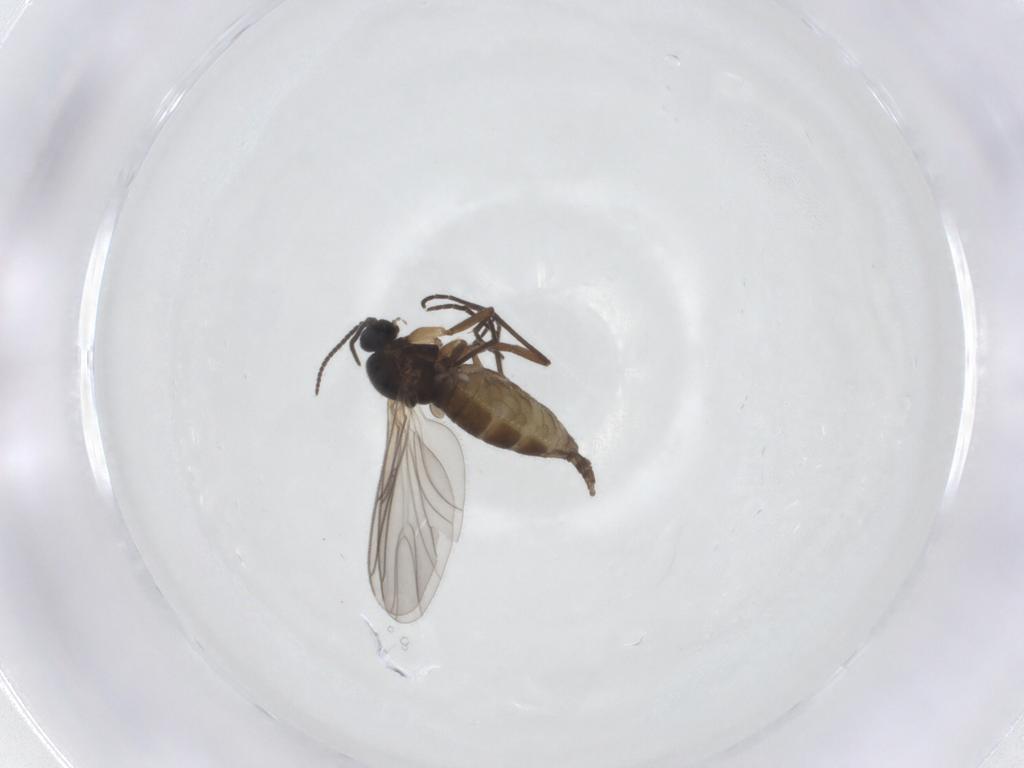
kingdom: Animalia
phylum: Arthropoda
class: Insecta
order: Diptera
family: Sciaridae
